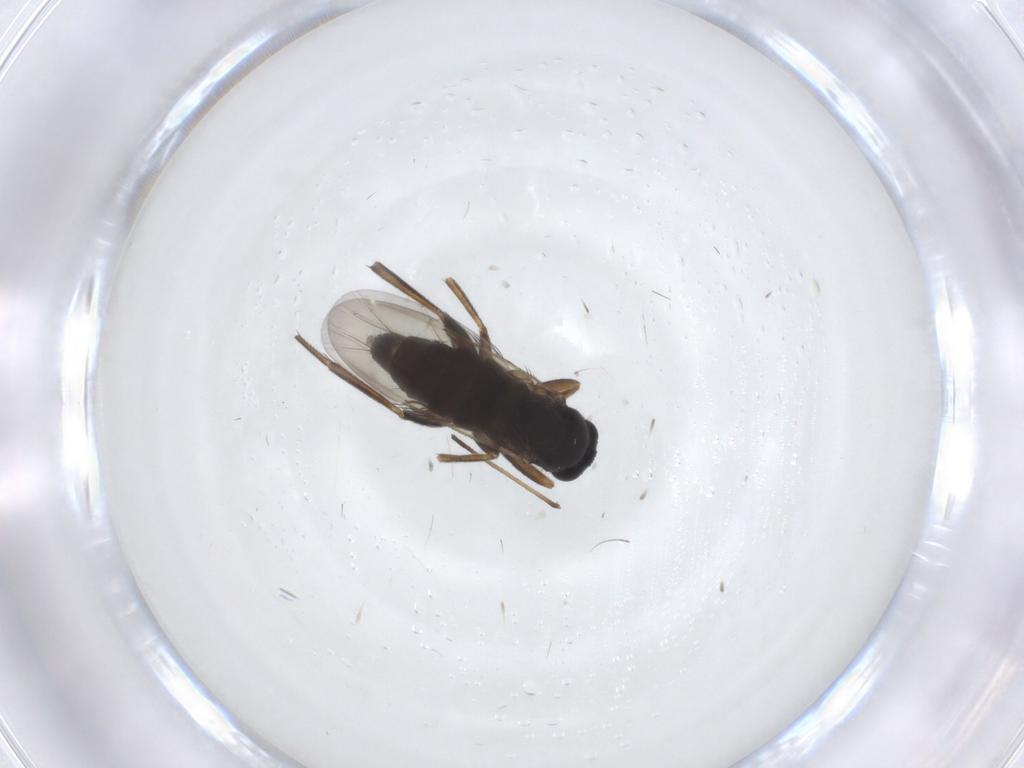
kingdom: Animalia
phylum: Arthropoda
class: Insecta
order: Diptera
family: Phoridae
